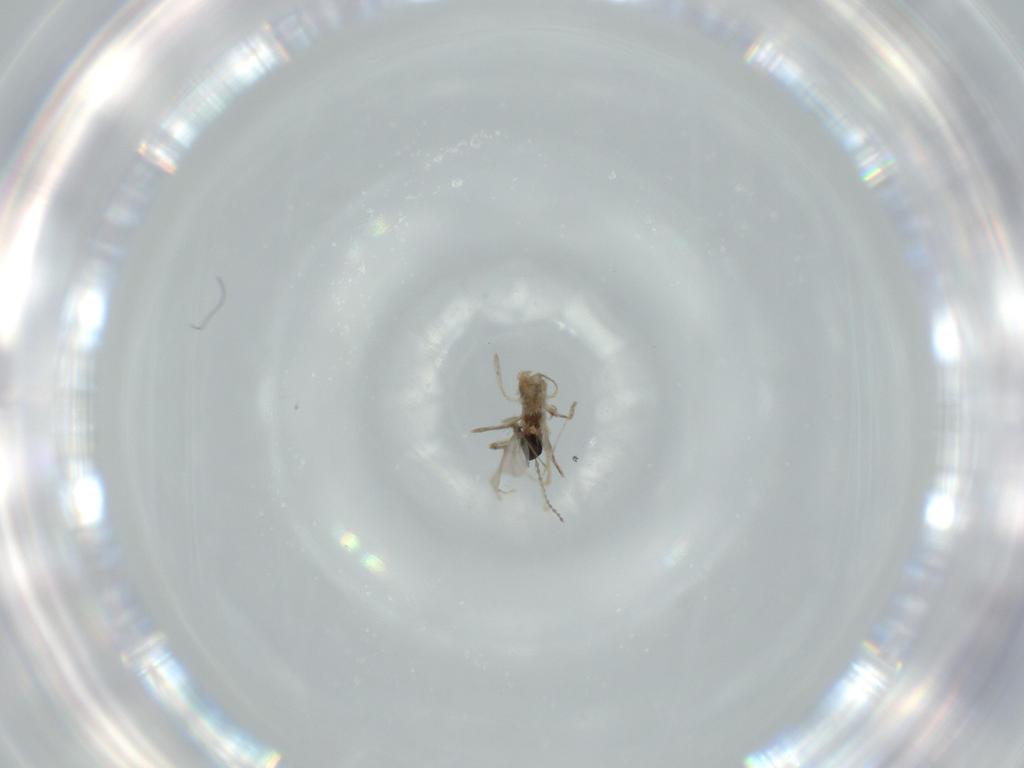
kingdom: Animalia
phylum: Arthropoda
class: Insecta
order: Diptera
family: Cecidomyiidae
